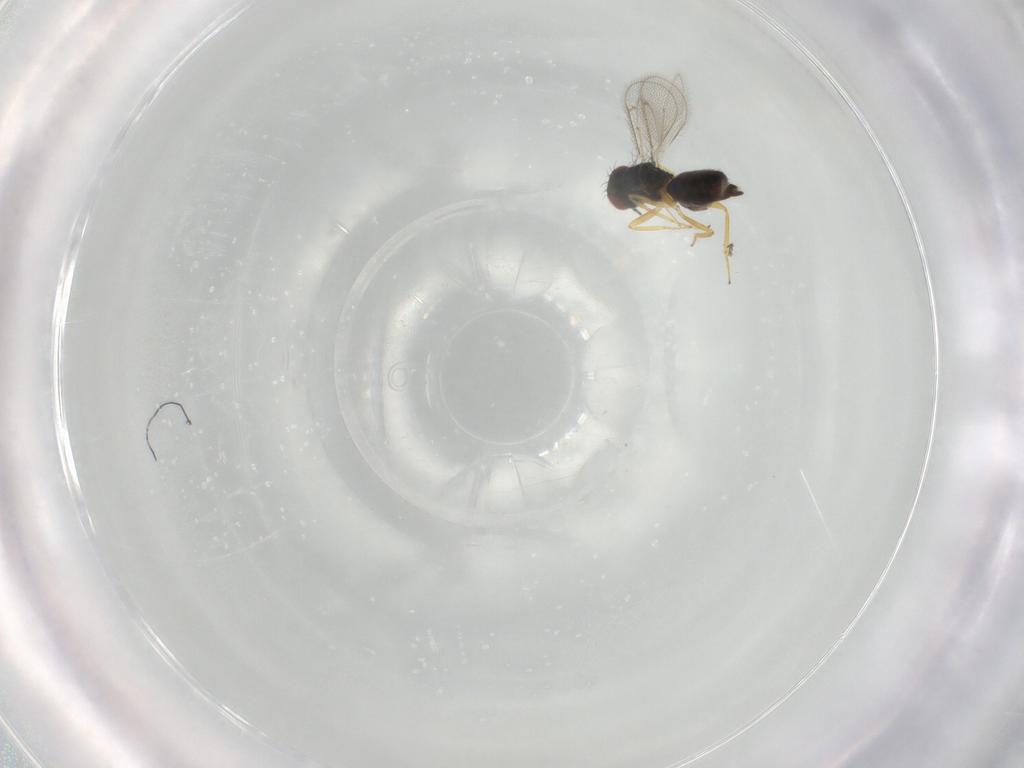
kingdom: Animalia
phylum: Arthropoda
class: Insecta
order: Hymenoptera
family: Eulophidae
